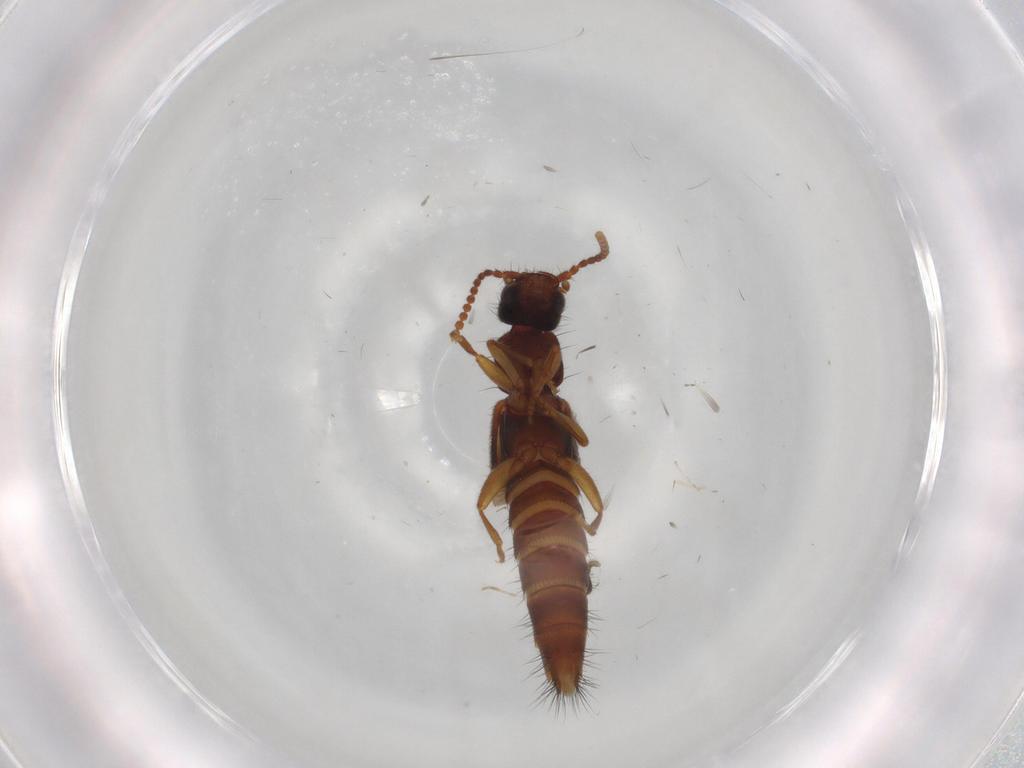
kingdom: Animalia
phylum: Arthropoda
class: Insecta
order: Coleoptera
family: Staphylinidae
